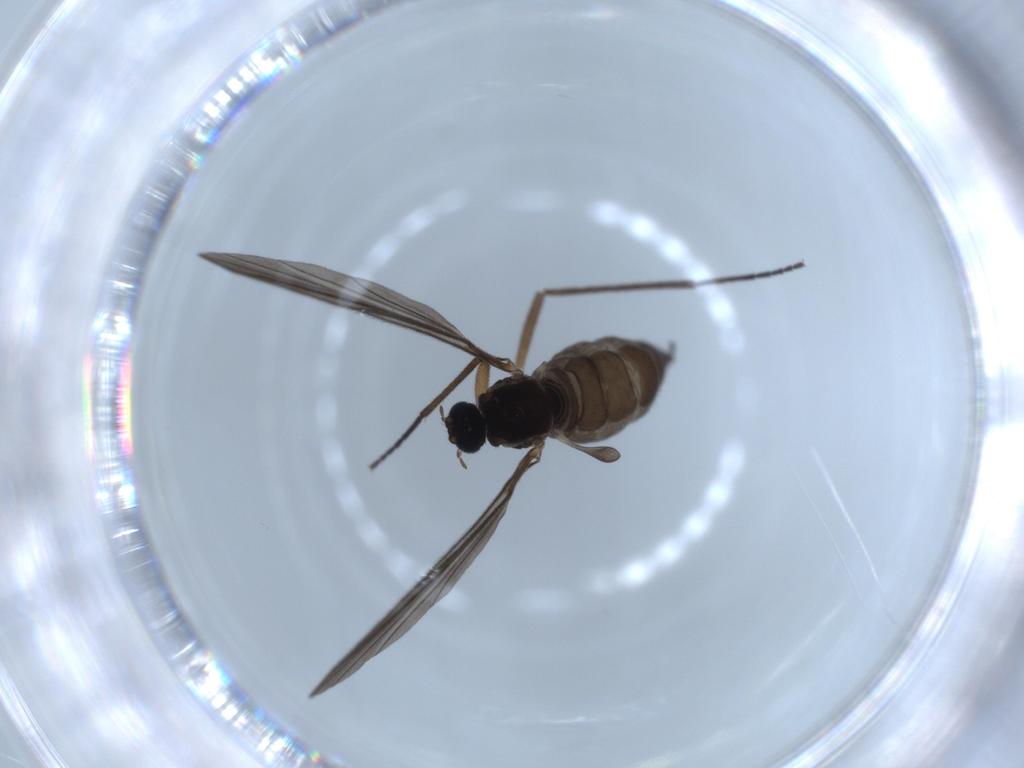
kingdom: Animalia
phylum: Arthropoda
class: Insecta
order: Diptera
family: Sciaridae
